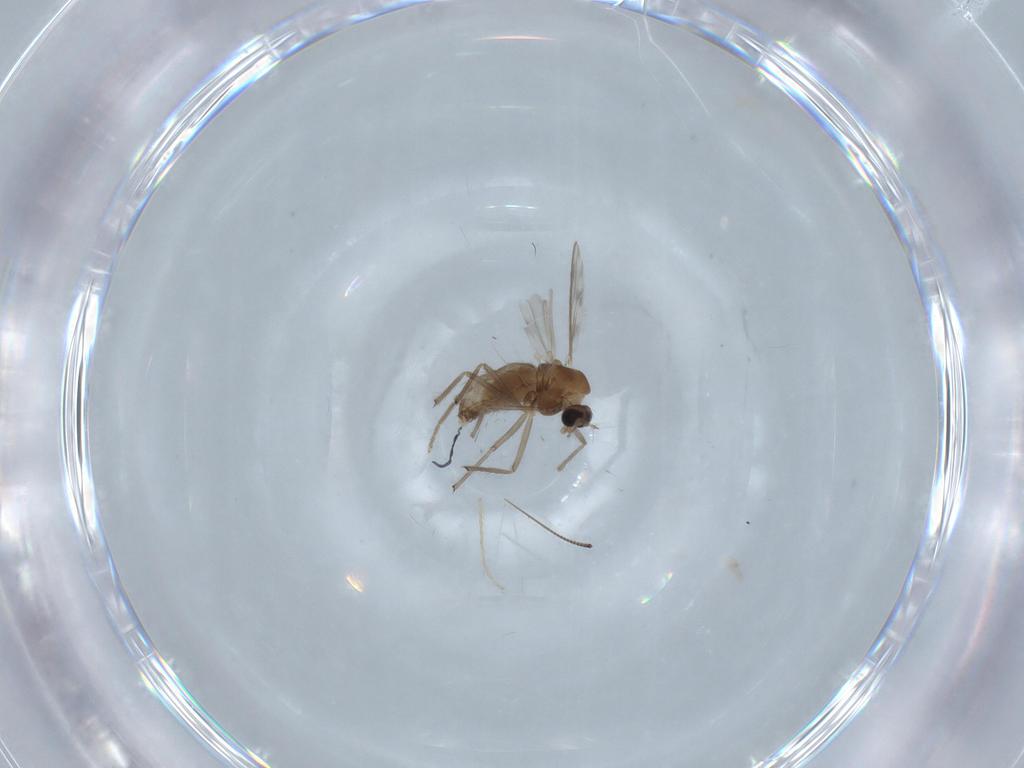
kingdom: Animalia
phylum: Arthropoda
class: Insecta
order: Diptera
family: Chironomidae
